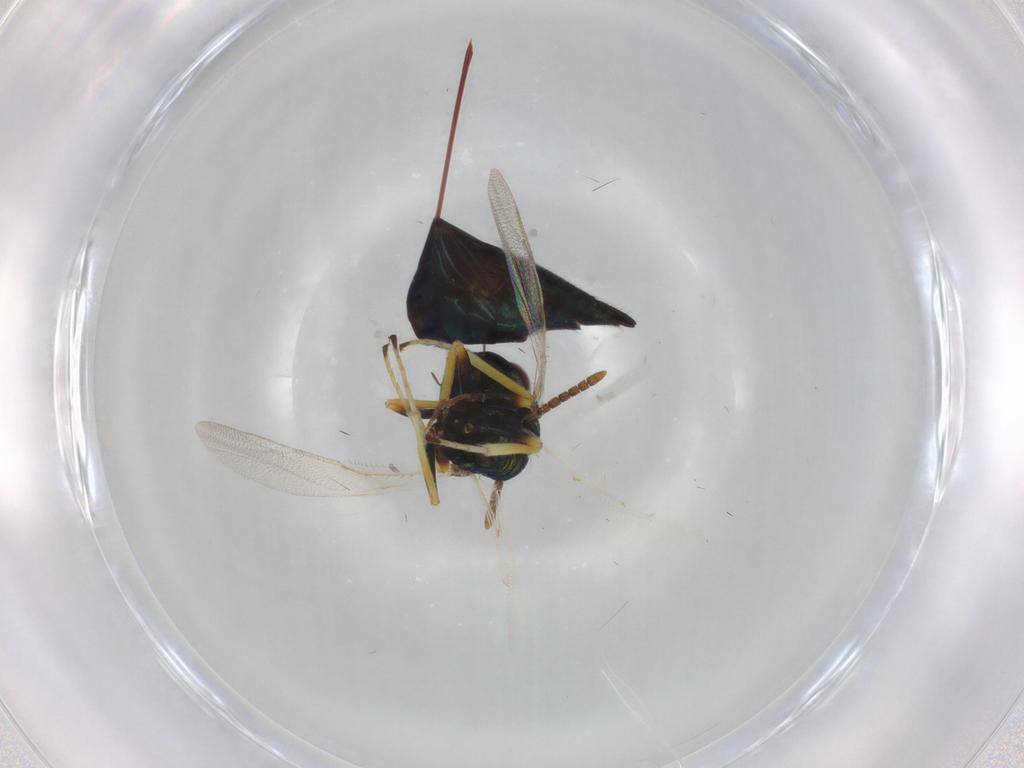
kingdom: Animalia
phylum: Arthropoda
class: Insecta
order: Hymenoptera
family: Pteromalidae
